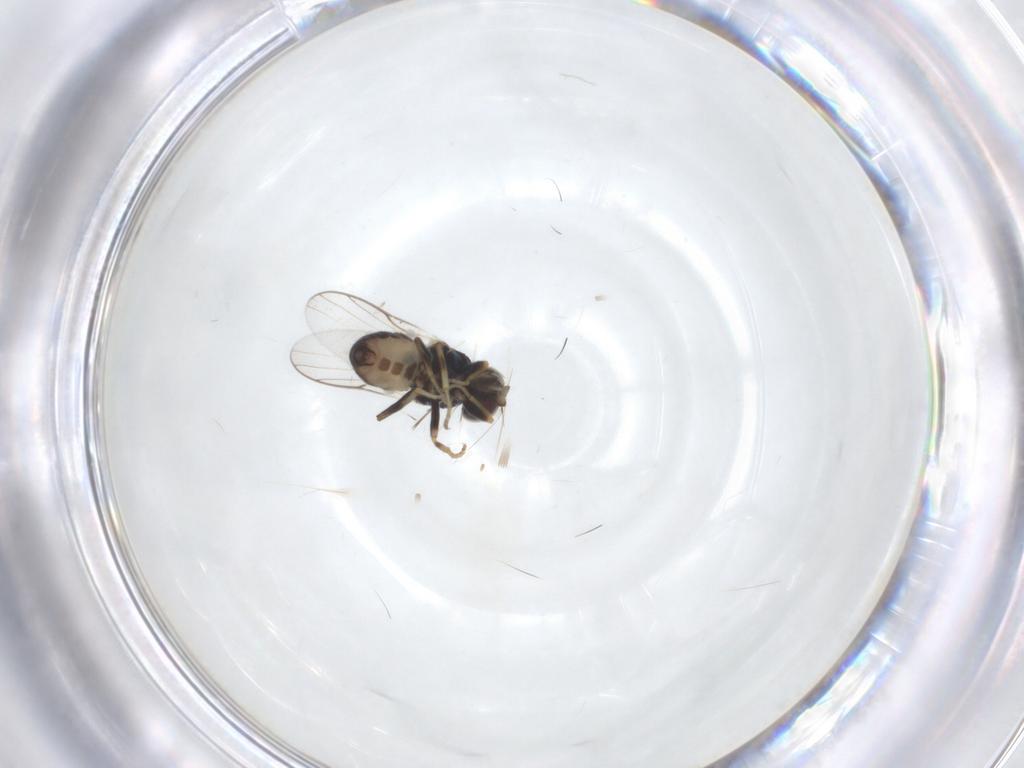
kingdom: Animalia
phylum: Arthropoda
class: Insecta
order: Diptera
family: Chloropidae
